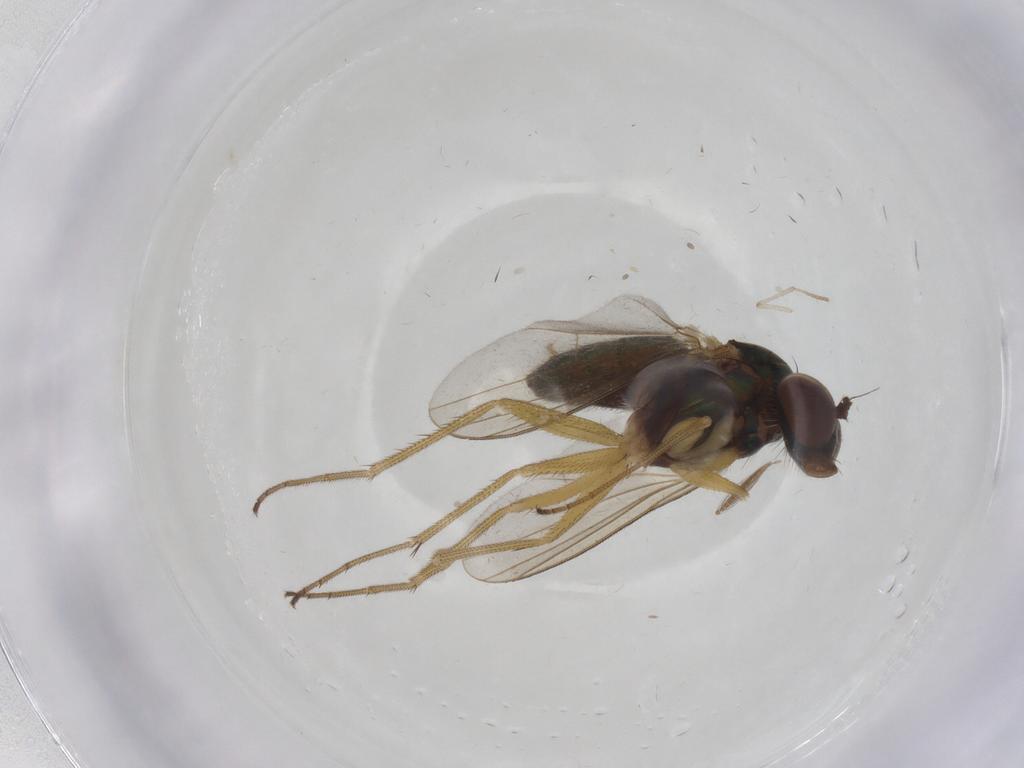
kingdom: Animalia
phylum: Arthropoda
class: Insecta
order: Diptera
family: Dolichopodidae
